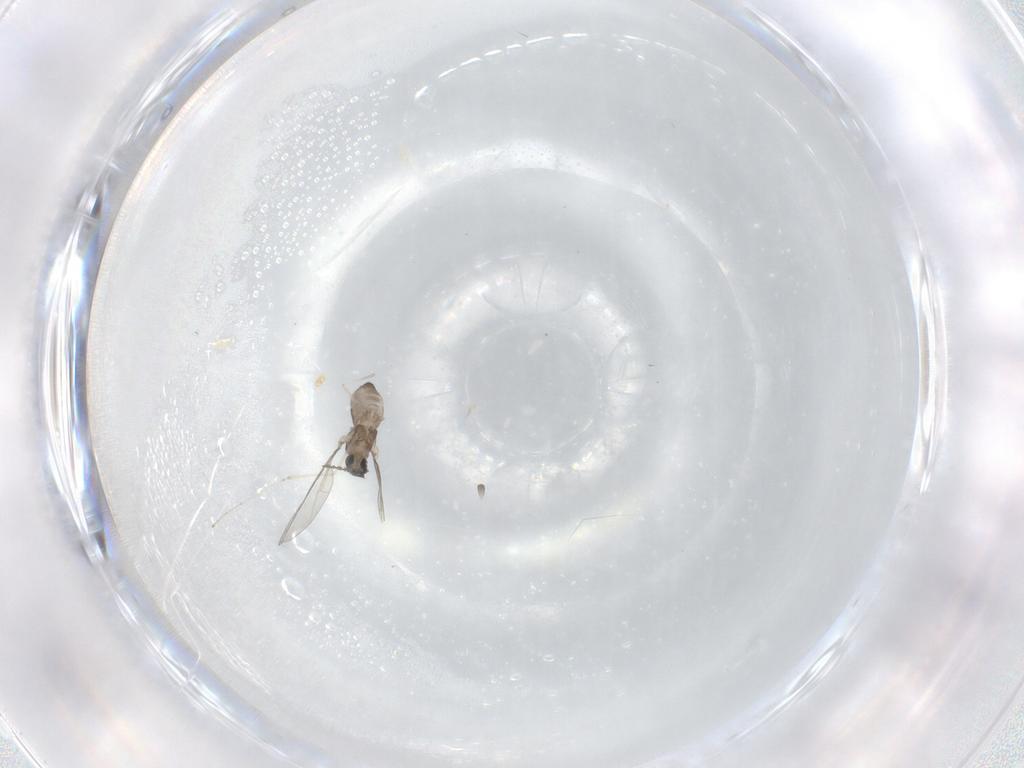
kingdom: Animalia
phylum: Arthropoda
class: Insecta
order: Diptera
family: Cecidomyiidae
